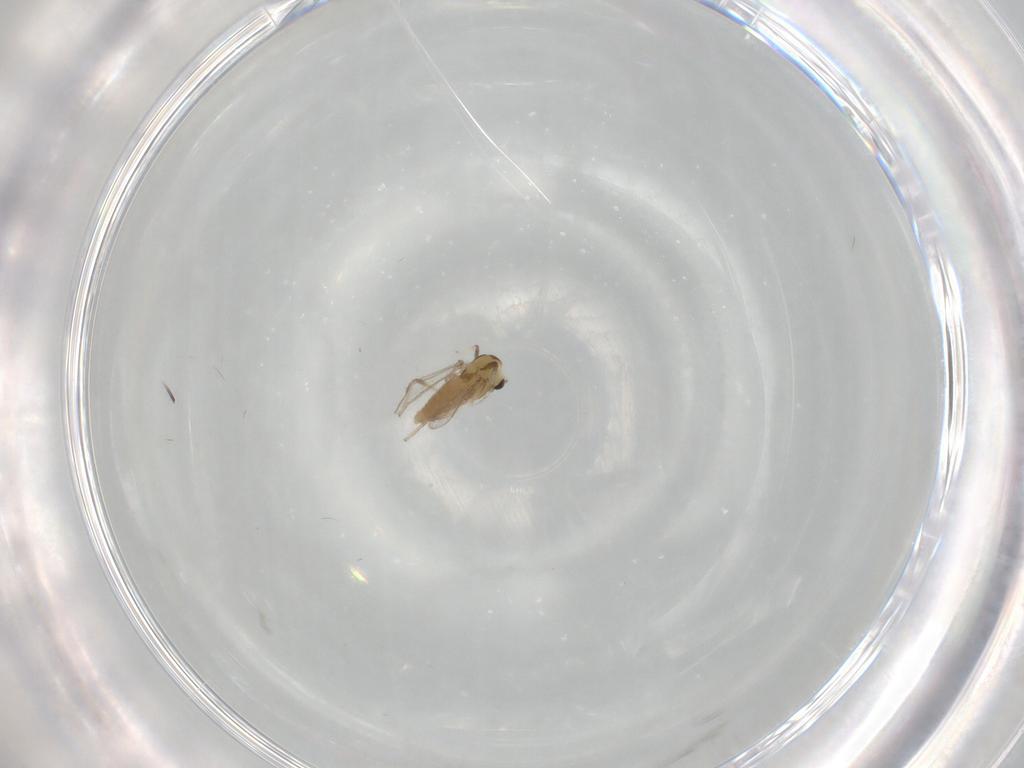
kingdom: Animalia
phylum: Arthropoda
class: Insecta
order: Diptera
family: Chironomidae
